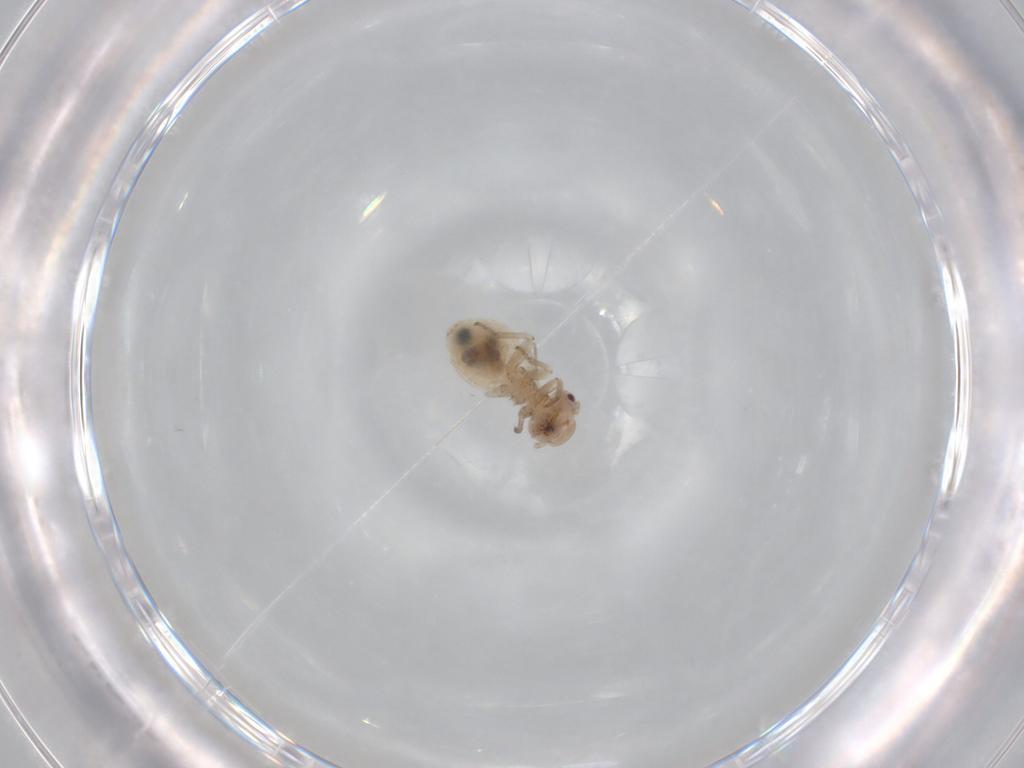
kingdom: Animalia
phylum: Arthropoda
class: Insecta
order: Psocodea
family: Peripsocidae
